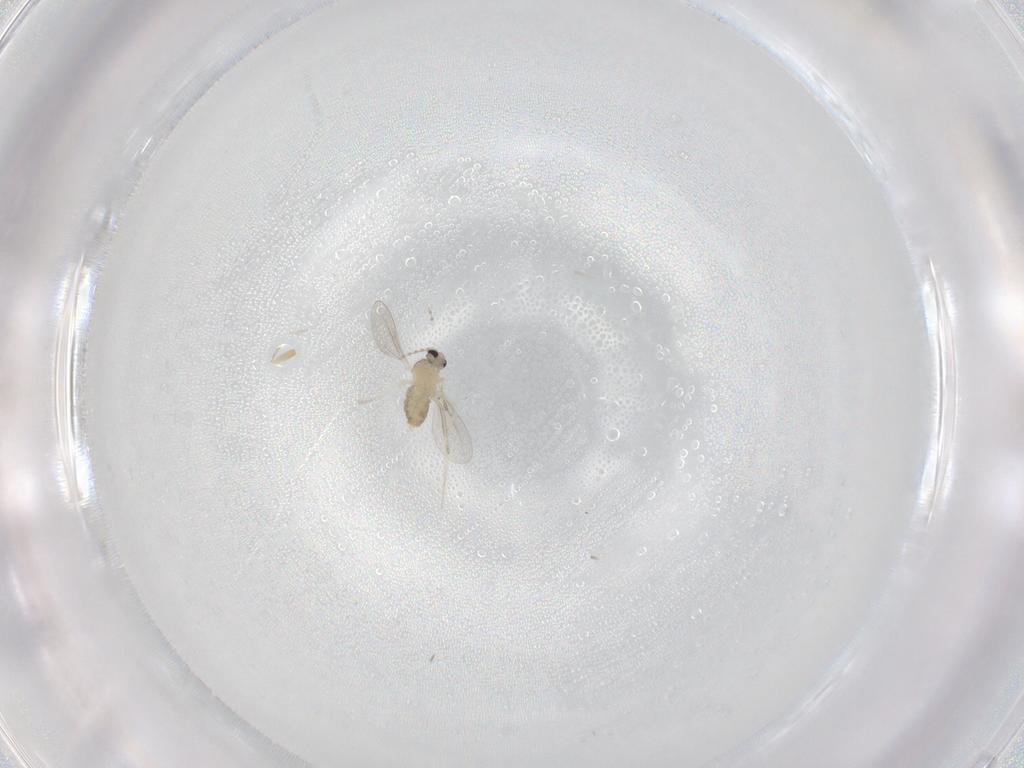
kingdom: Animalia
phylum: Arthropoda
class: Insecta
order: Diptera
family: Cecidomyiidae
